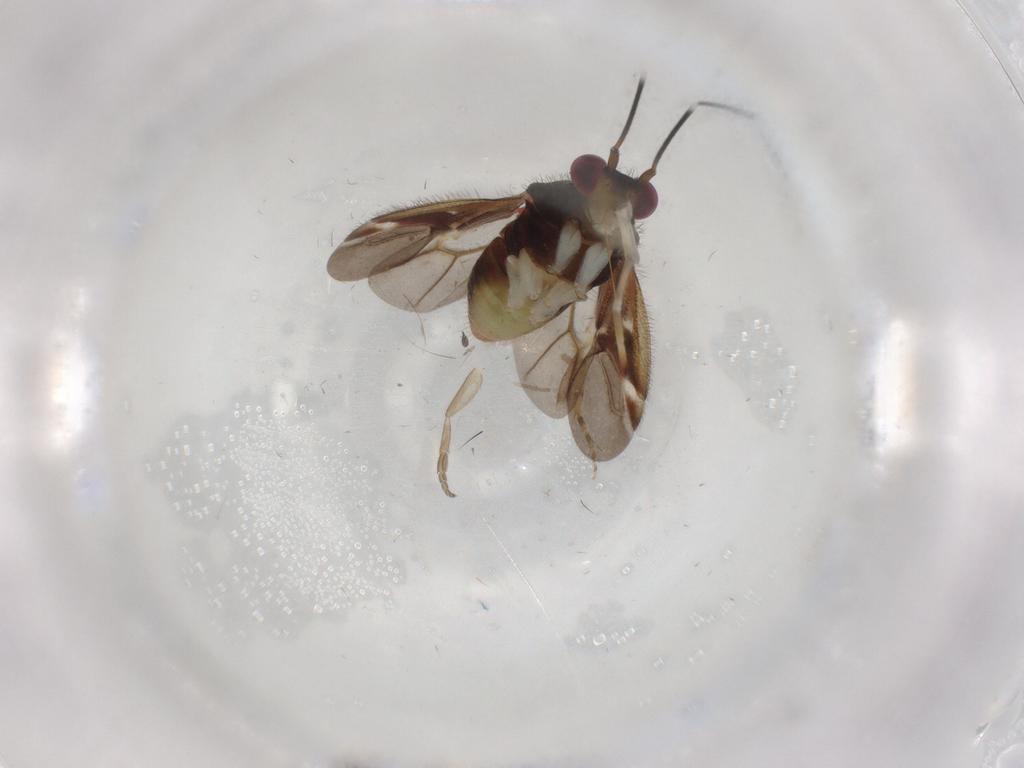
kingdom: Animalia
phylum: Arthropoda
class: Insecta
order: Hemiptera
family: Miridae
